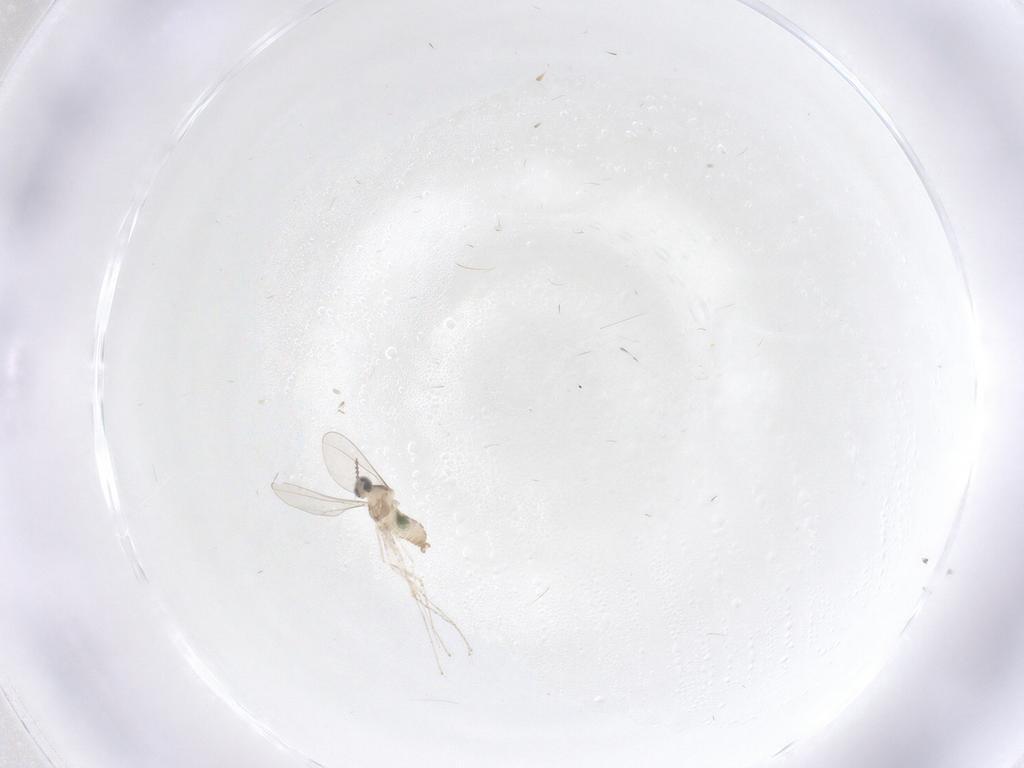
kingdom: Animalia
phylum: Arthropoda
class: Insecta
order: Diptera
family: Cecidomyiidae
